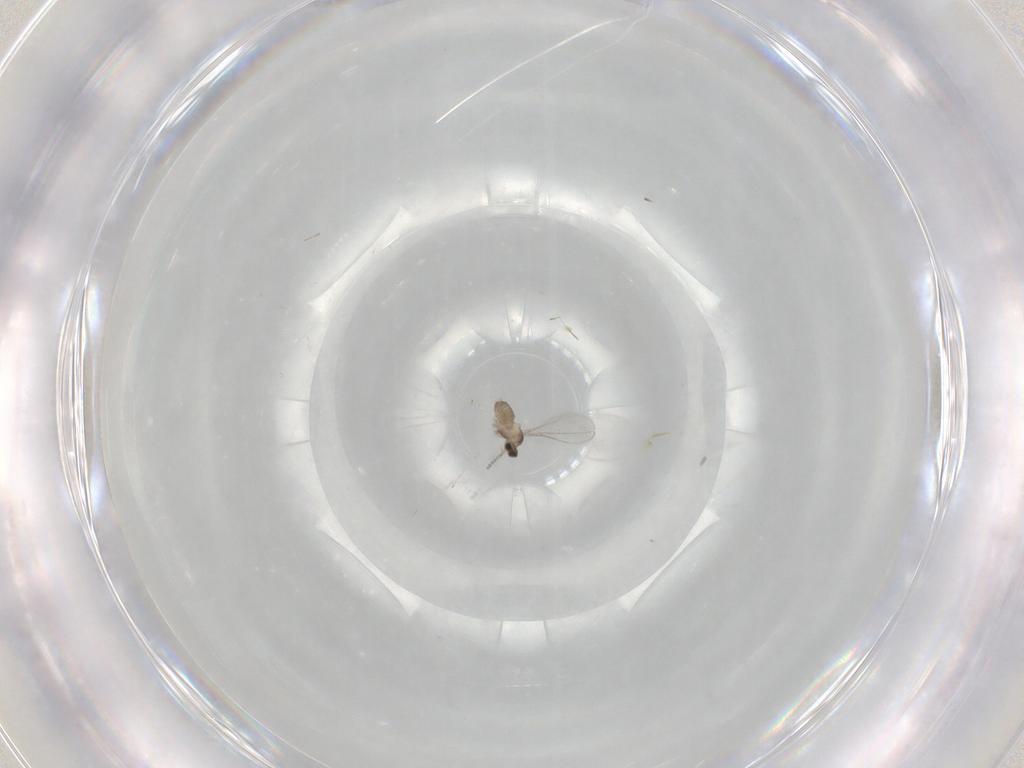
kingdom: Animalia
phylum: Arthropoda
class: Insecta
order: Diptera
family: Cecidomyiidae
